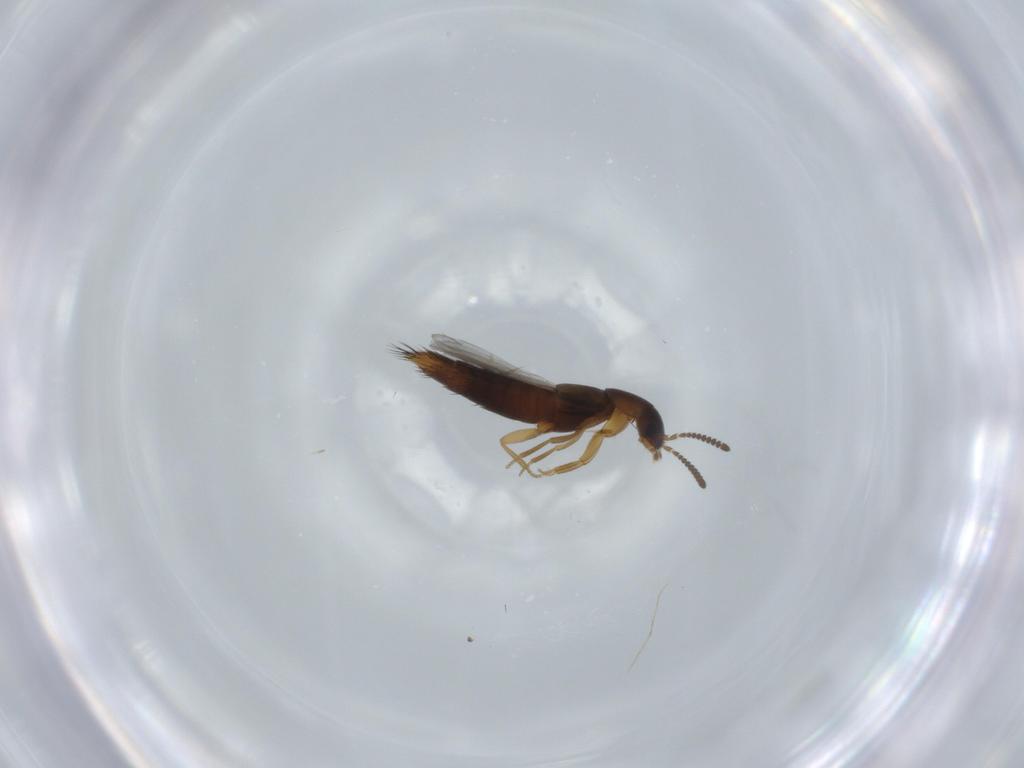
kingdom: Animalia
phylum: Arthropoda
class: Insecta
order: Coleoptera
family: Staphylinidae
